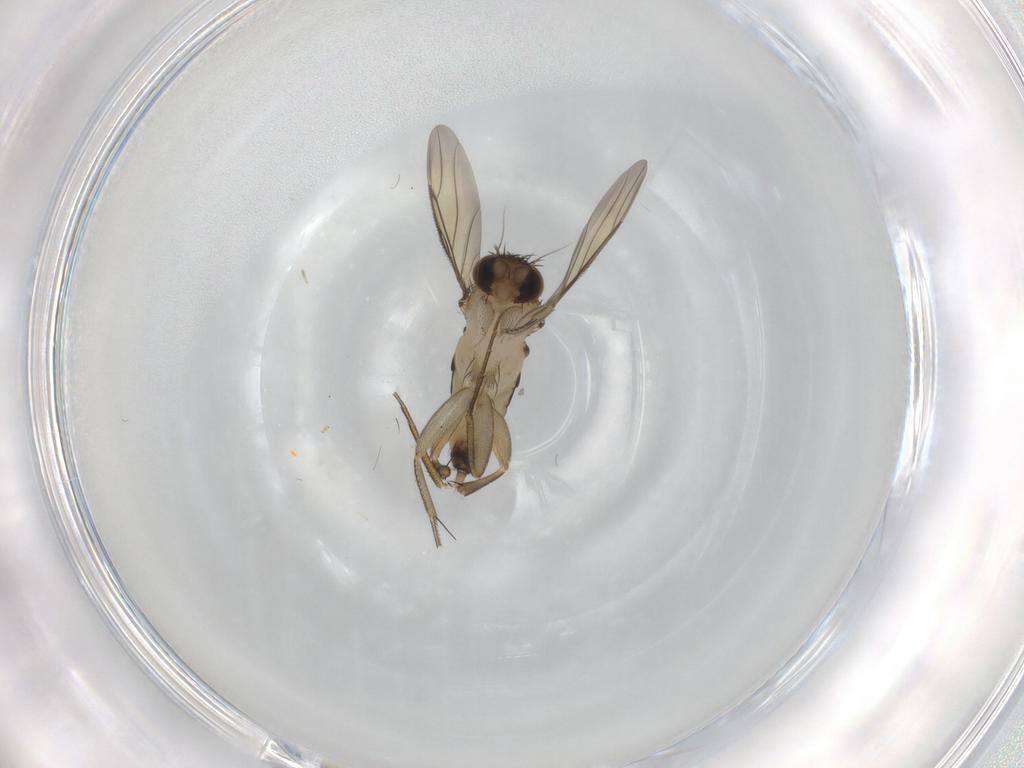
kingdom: Animalia
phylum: Arthropoda
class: Insecta
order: Diptera
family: Phoridae
